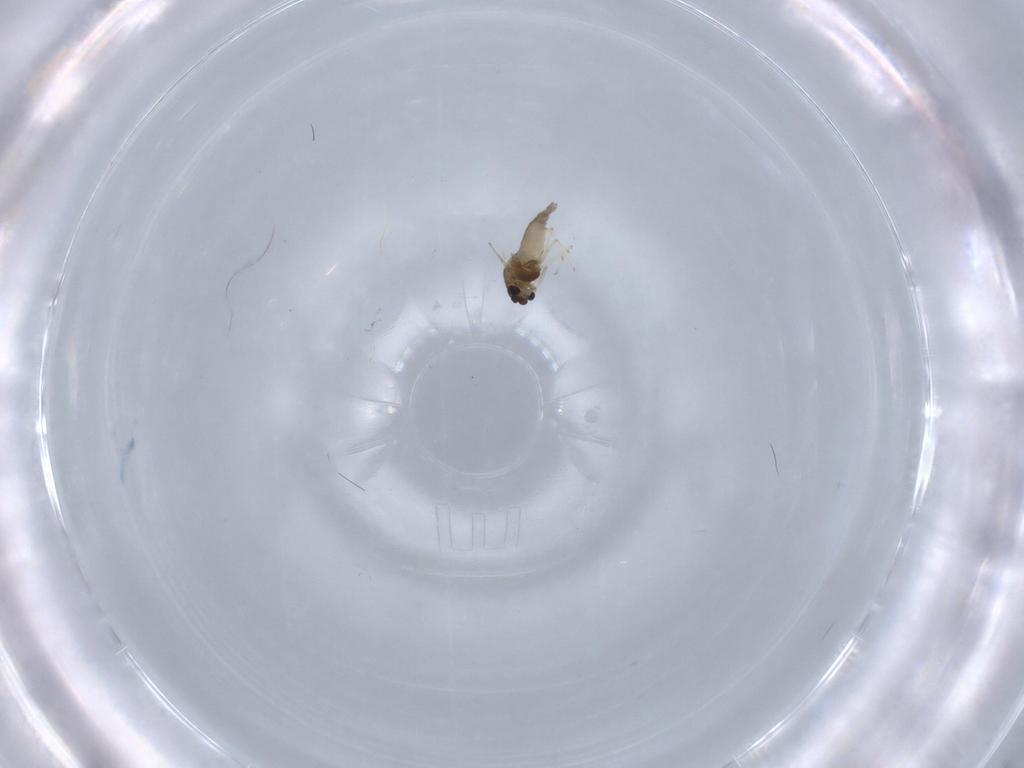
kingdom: Animalia
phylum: Arthropoda
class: Insecta
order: Diptera
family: Chironomidae
